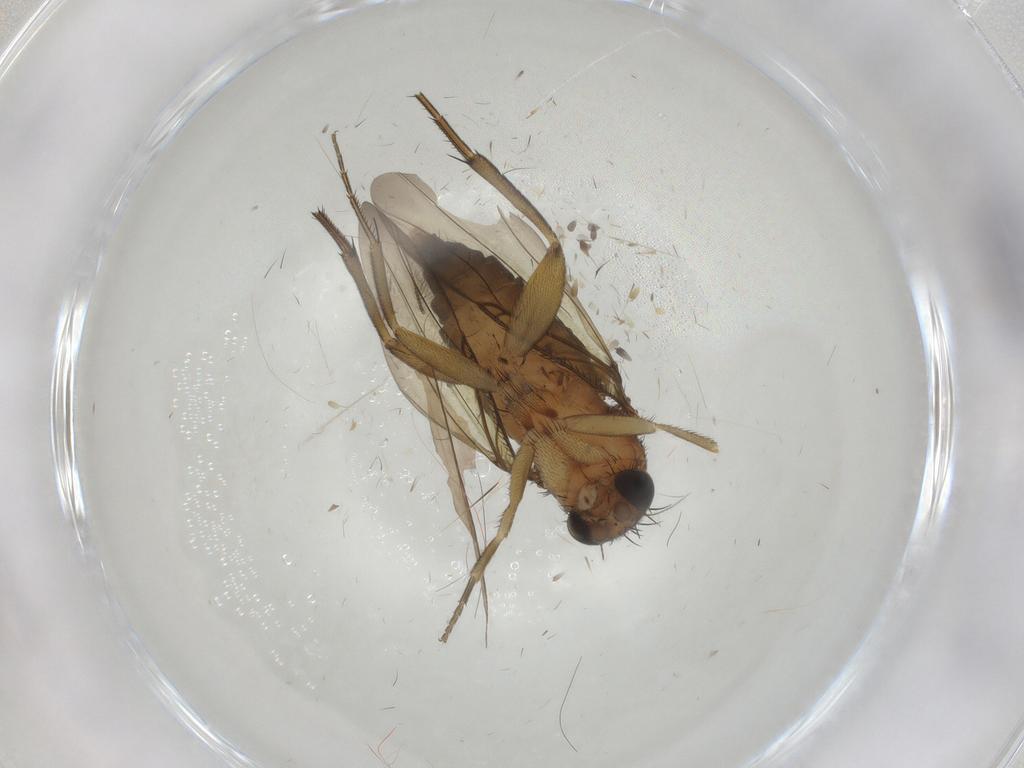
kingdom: Animalia
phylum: Arthropoda
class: Insecta
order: Diptera
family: Phoridae
